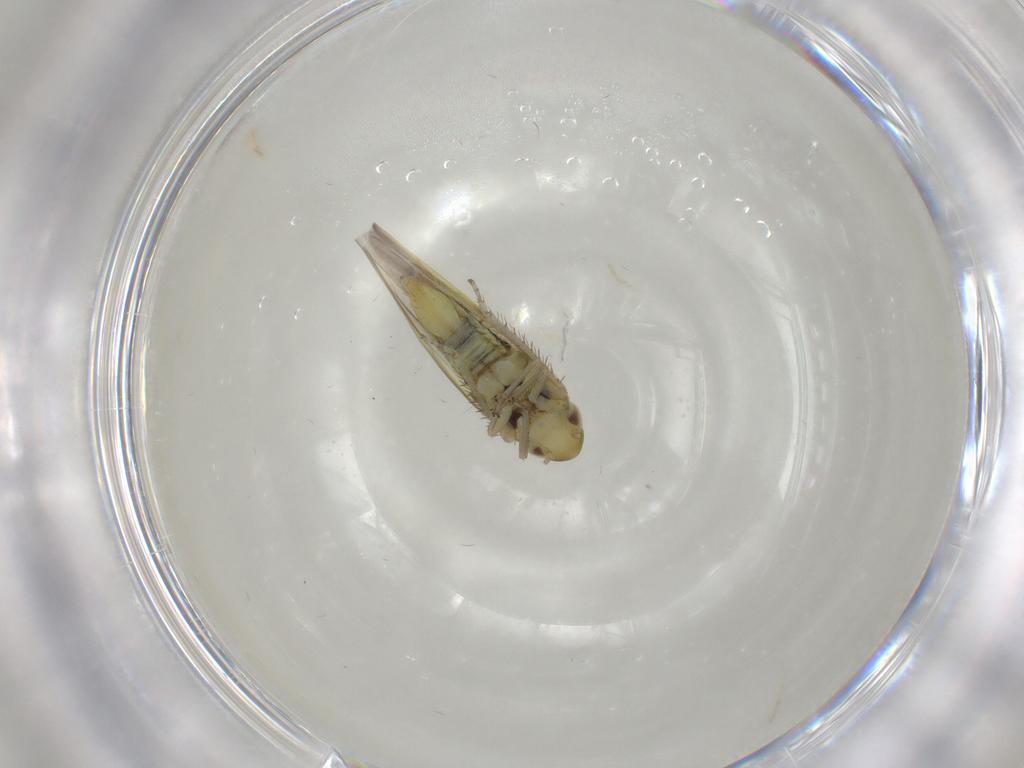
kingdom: Animalia
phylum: Arthropoda
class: Insecta
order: Hemiptera
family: Cicadellidae
